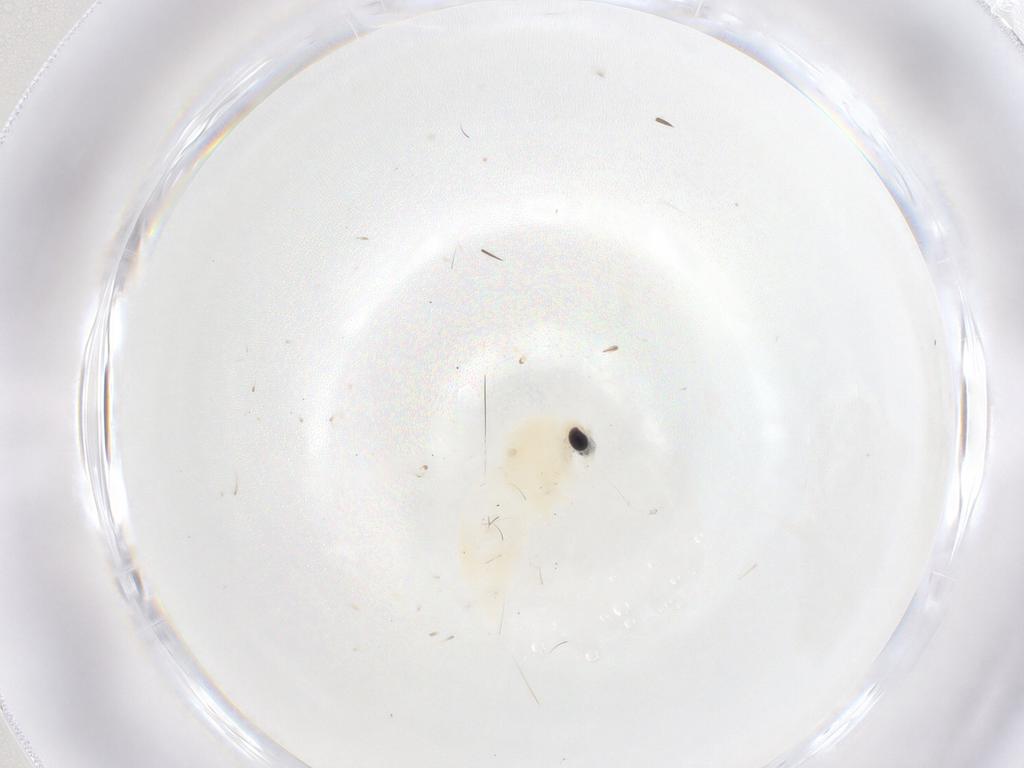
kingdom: Animalia
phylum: Arthropoda
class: Insecta
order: Diptera
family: Chironomidae
